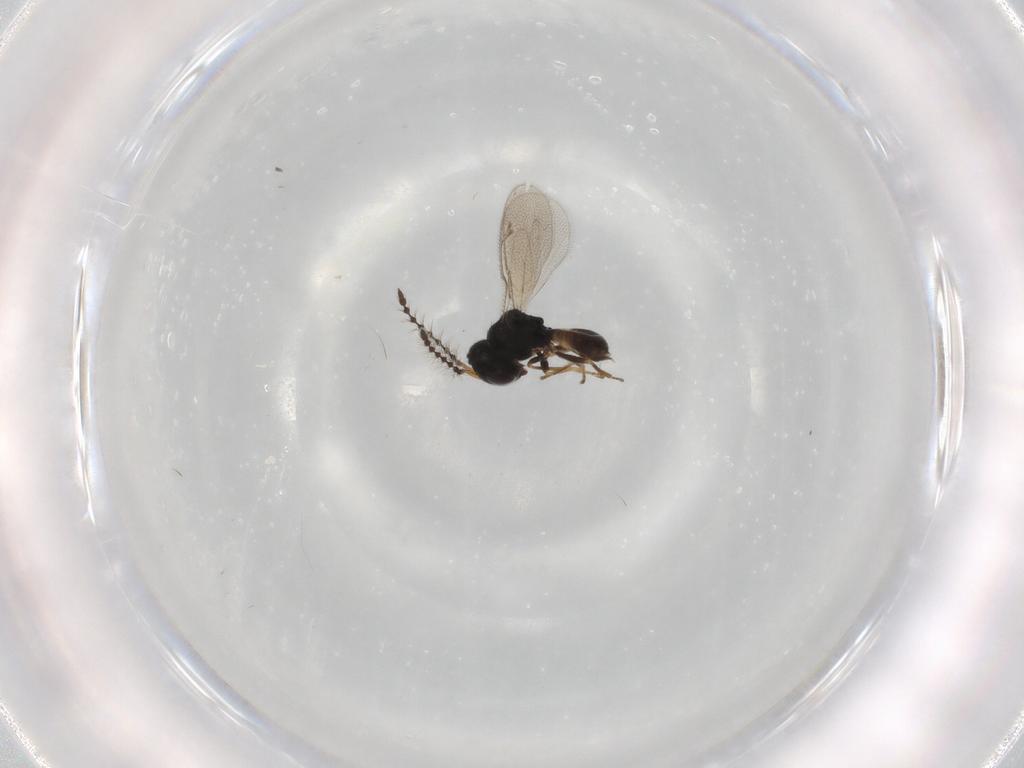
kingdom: Animalia
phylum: Arthropoda
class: Insecta
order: Hymenoptera
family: Pteromalidae
